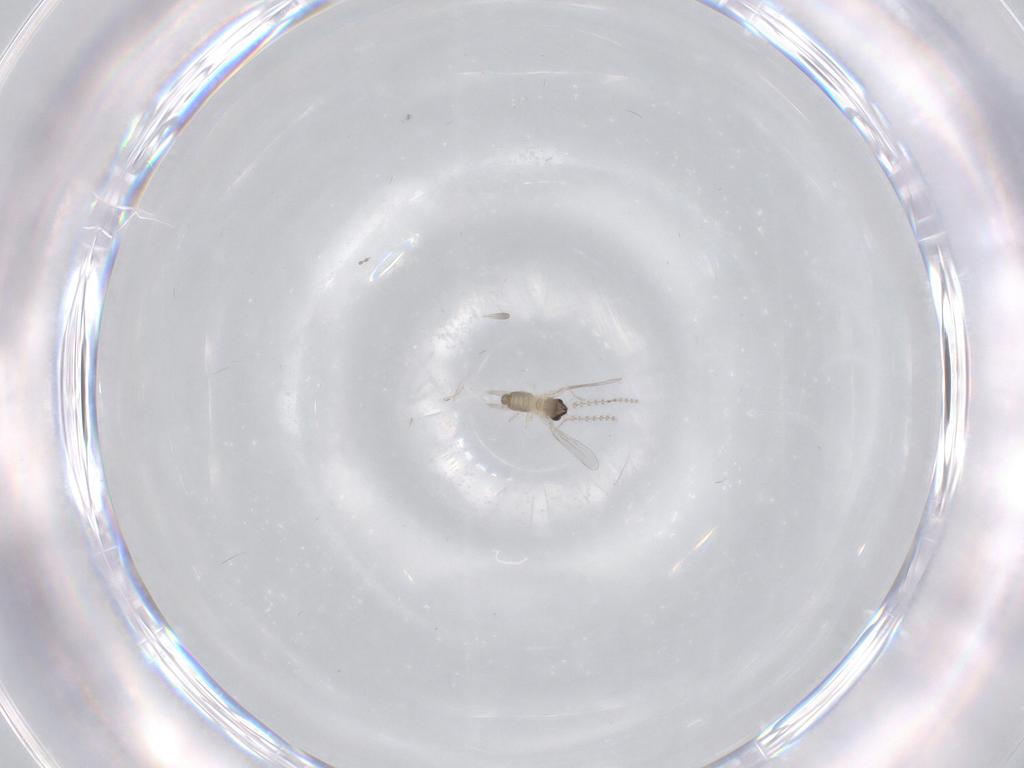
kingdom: Animalia
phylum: Arthropoda
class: Insecta
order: Diptera
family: Cecidomyiidae
